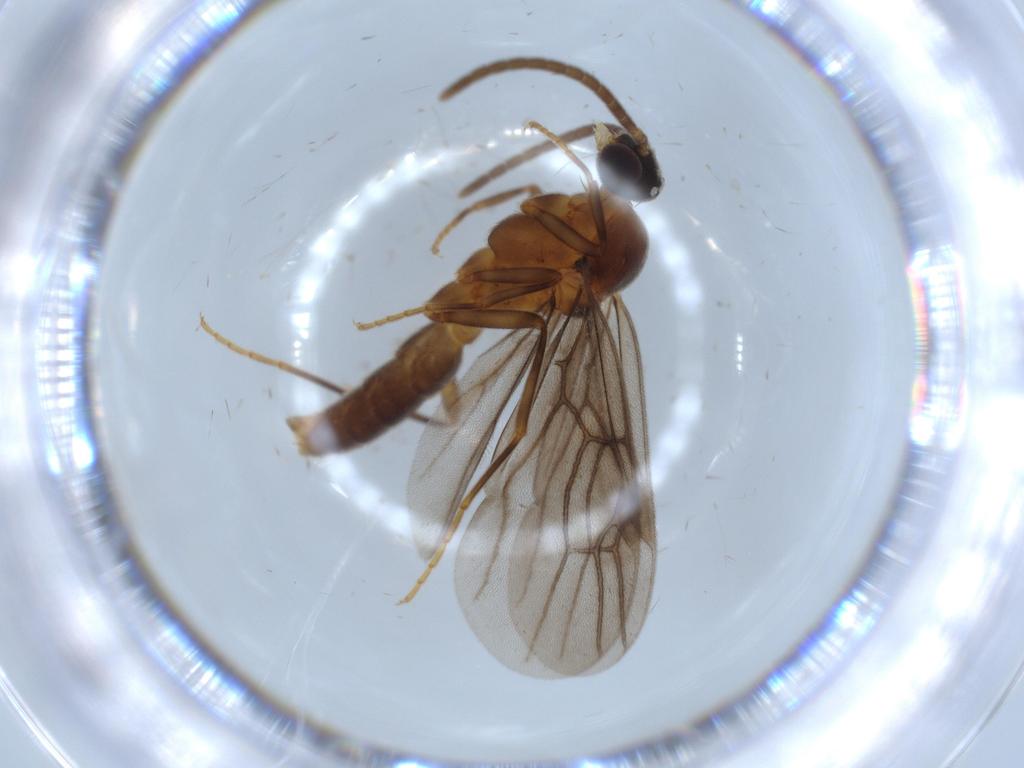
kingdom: Animalia
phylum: Arthropoda
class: Insecta
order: Hymenoptera
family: Formicidae
